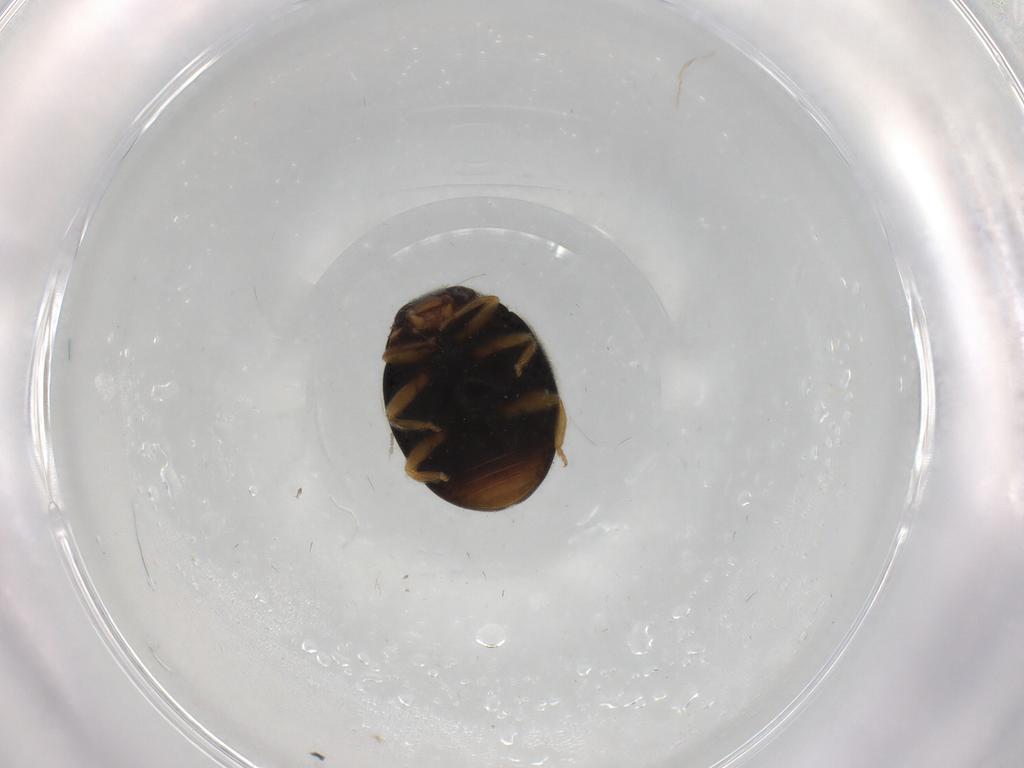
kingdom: Animalia
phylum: Arthropoda
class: Insecta
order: Coleoptera
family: Coccinellidae
